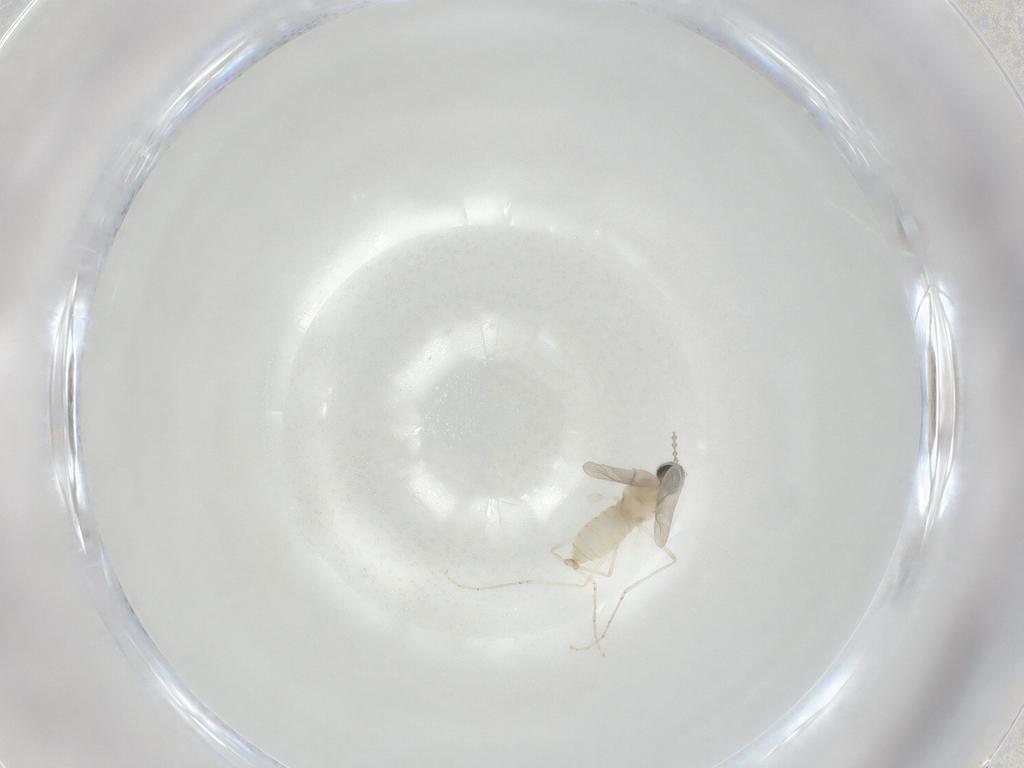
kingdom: Animalia
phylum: Arthropoda
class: Insecta
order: Diptera
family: Cecidomyiidae
